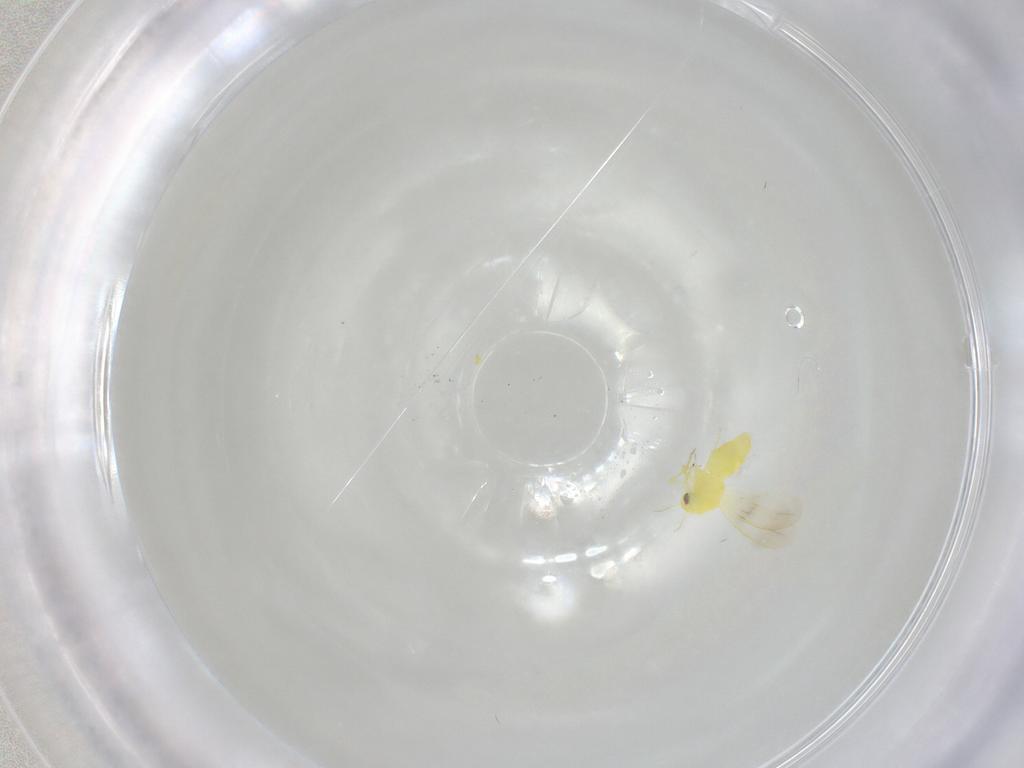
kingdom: Animalia
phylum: Arthropoda
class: Insecta
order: Hemiptera
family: Aleyrodidae
